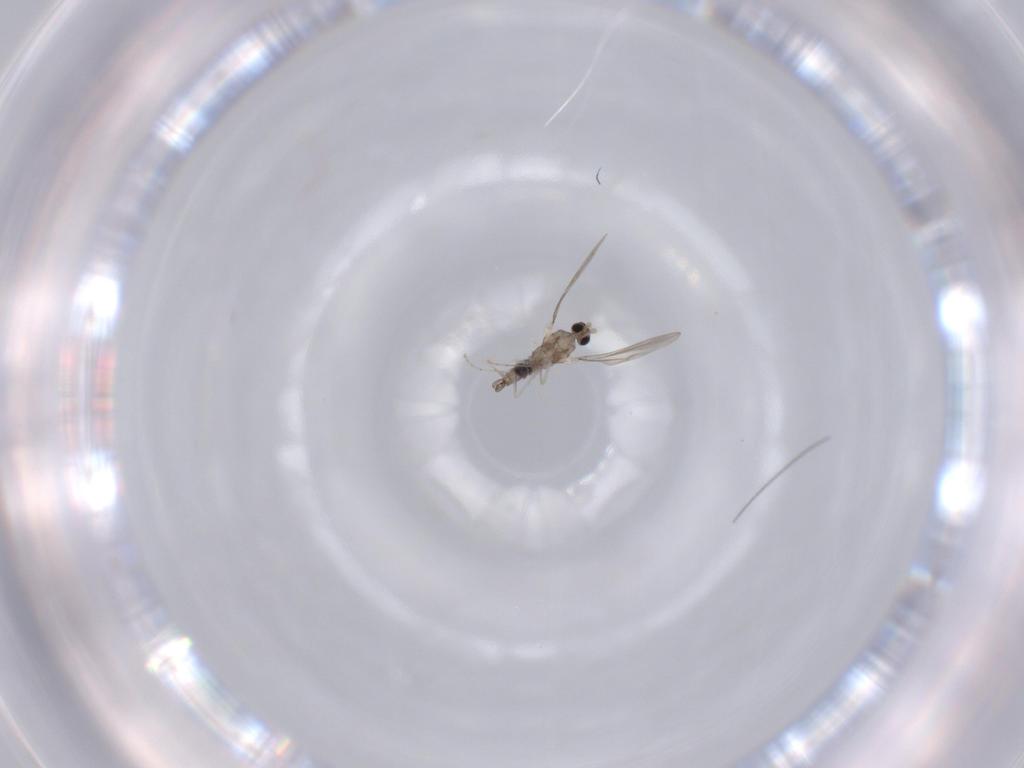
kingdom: Animalia
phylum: Arthropoda
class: Insecta
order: Diptera
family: Cecidomyiidae
